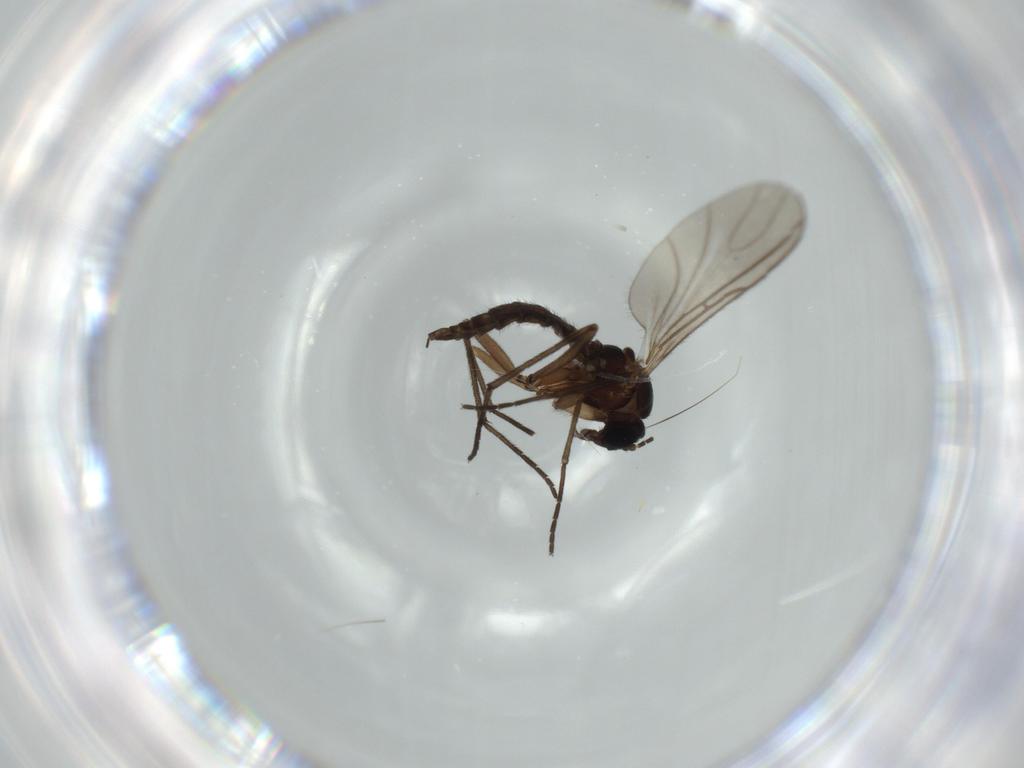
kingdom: Animalia
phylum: Arthropoda
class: Insecta
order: Diptera
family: Sciaridae
